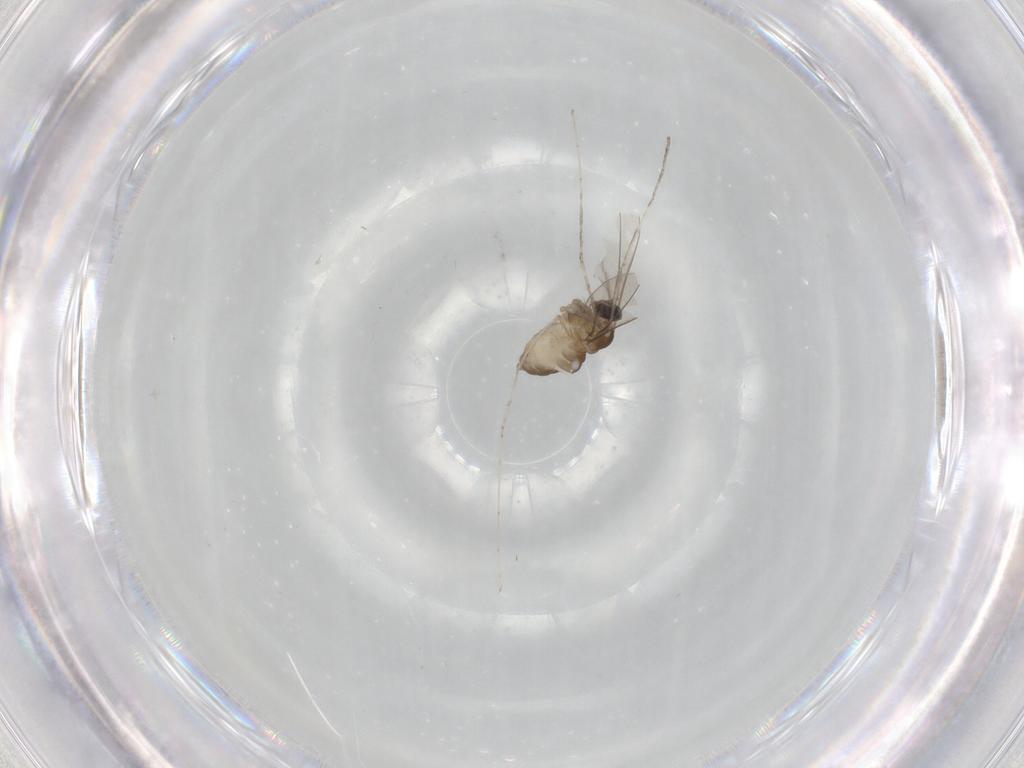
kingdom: Animalia
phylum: Arthropoda
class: Insecta
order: Diptera
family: Cecidomyiidae
